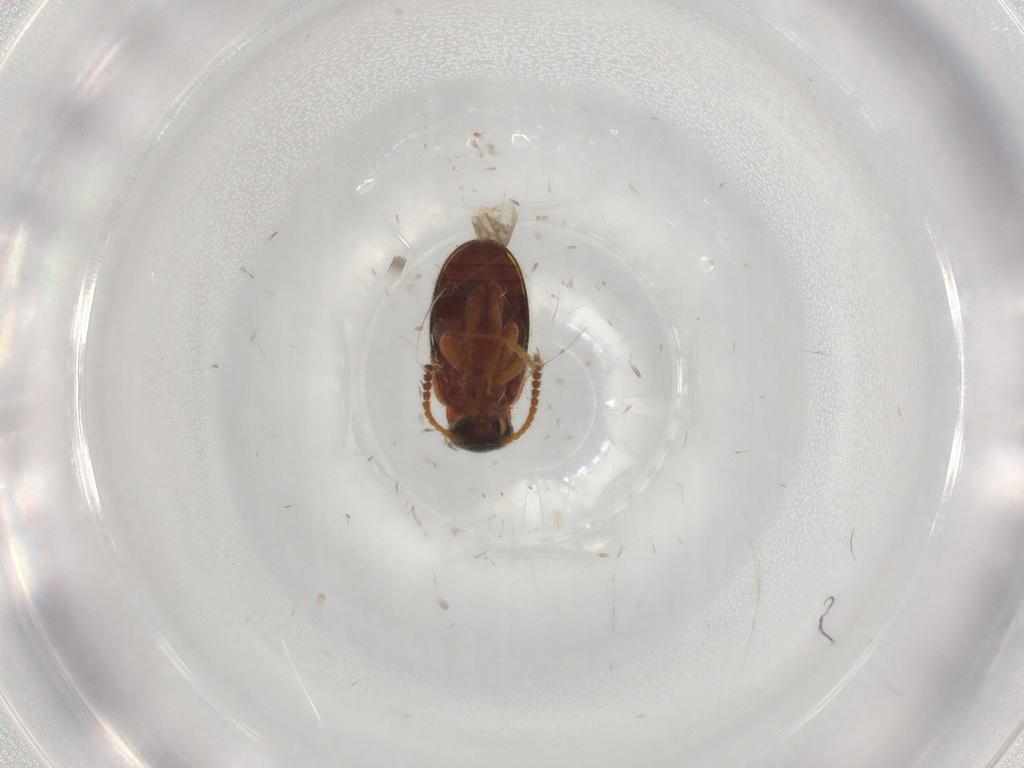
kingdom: Animalia
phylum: Arthropoda
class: Insecta
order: Coleoptera
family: Aderidae
